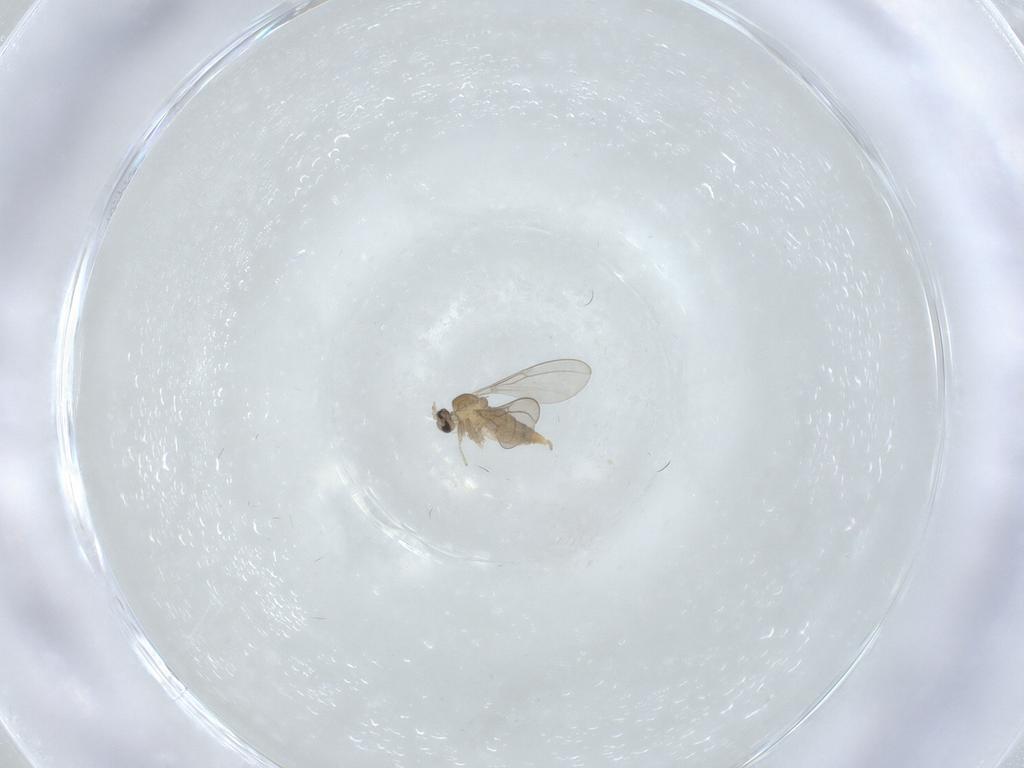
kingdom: Animalia
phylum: Arthropoda
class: Insecta
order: Diptera
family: Cecidomyiidae
